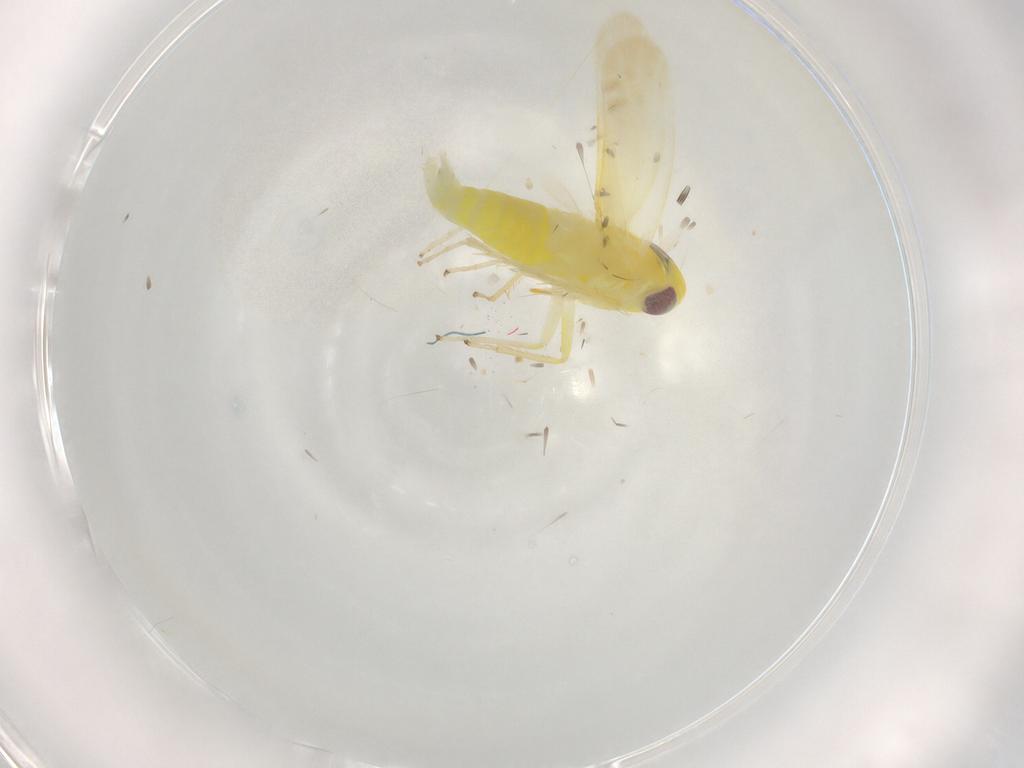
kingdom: Animalia
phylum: Arthropoda
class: Insecta
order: Hemiptera
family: Cicadellidae
